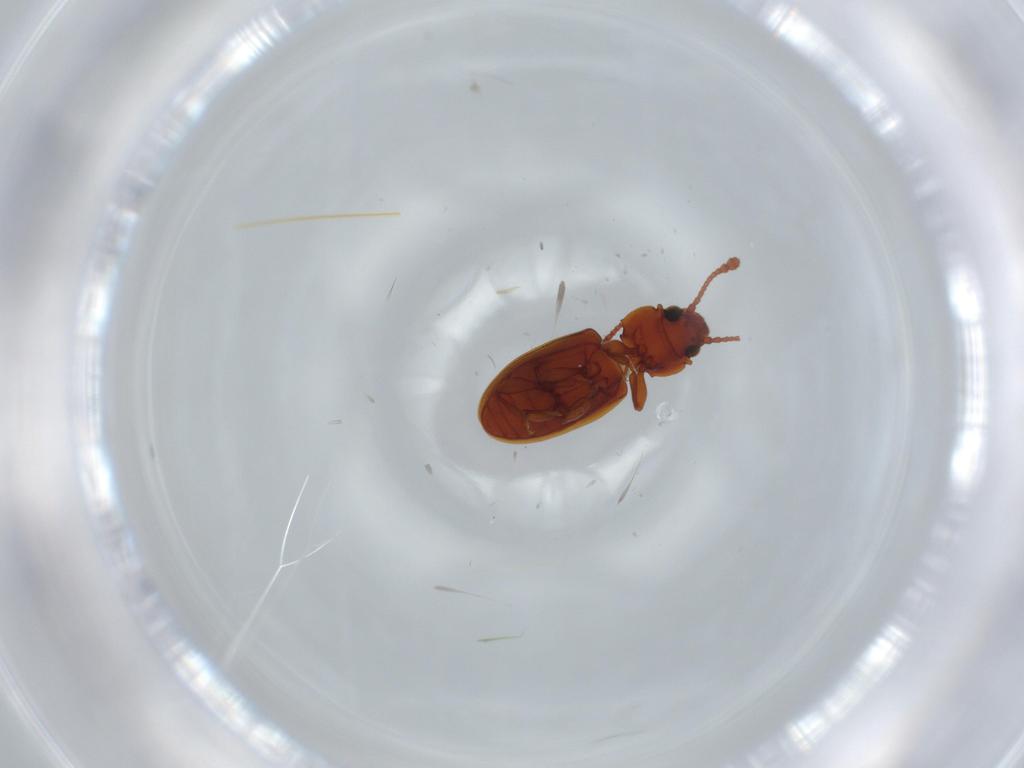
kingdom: Animalia
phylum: Arthropoda
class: Insecta
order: Coleoptera
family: Silvanidae
